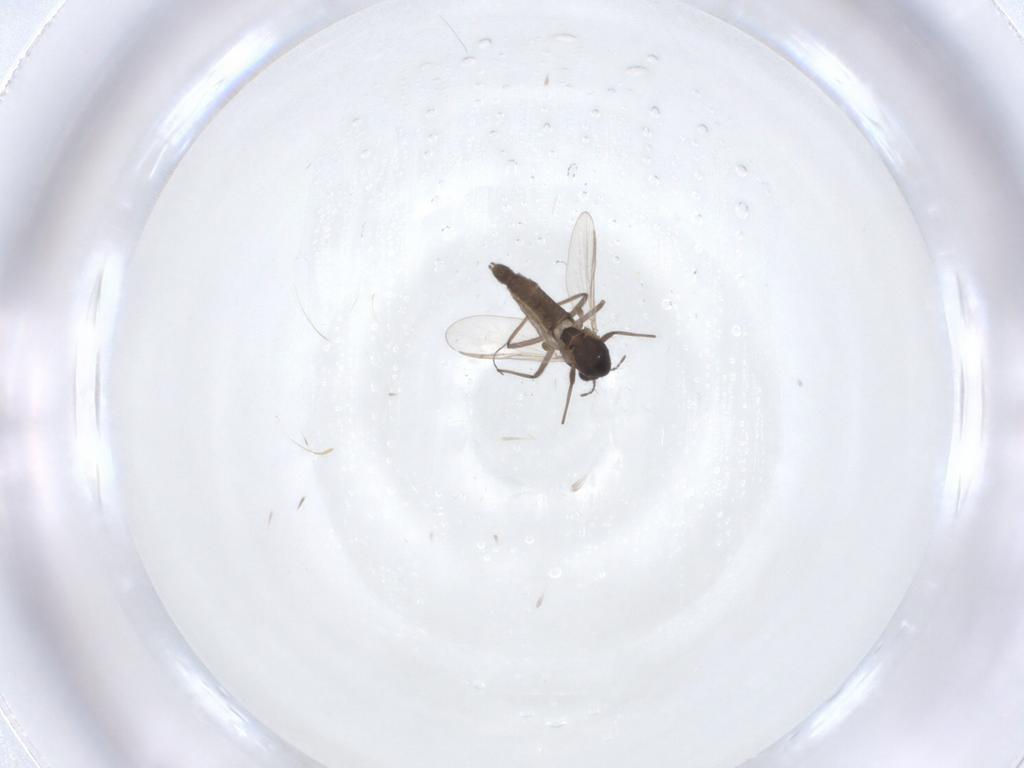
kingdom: Animalia
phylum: Arthropoda
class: Insecta
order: Diptera
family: Chironomidae
